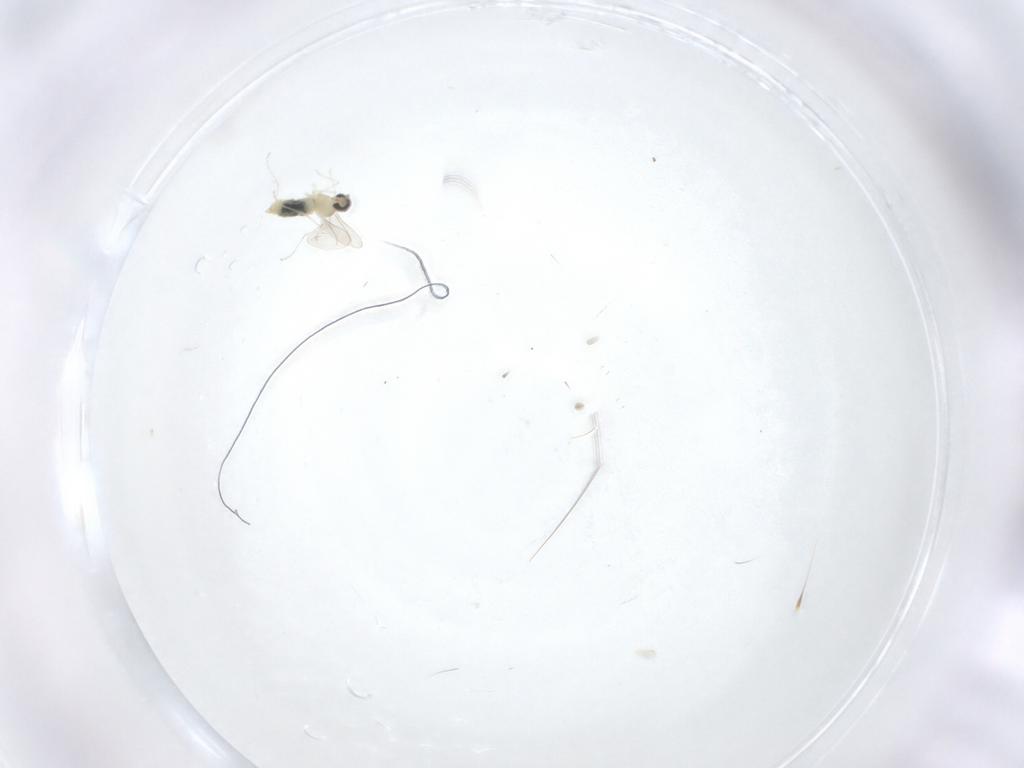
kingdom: Animalia
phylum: Arthropoda
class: Insecta
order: Diptera
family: Cecidomyiidae
